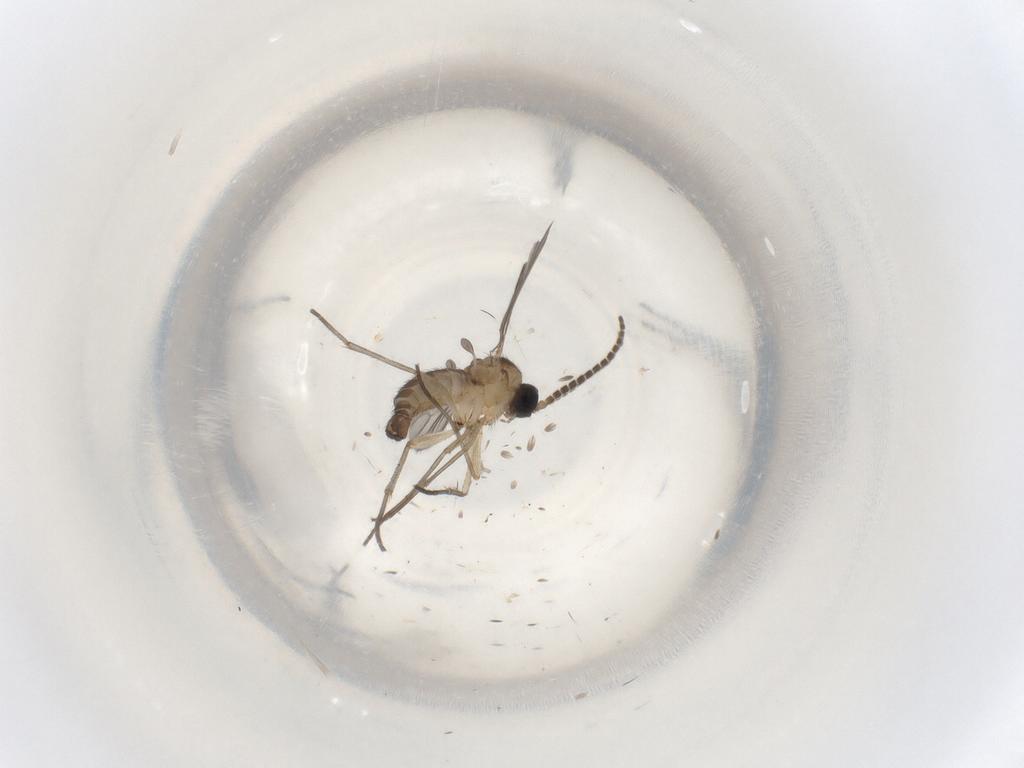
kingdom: Animalia
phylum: Arthropoda
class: Insecta
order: Diptera
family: Sciaridae
